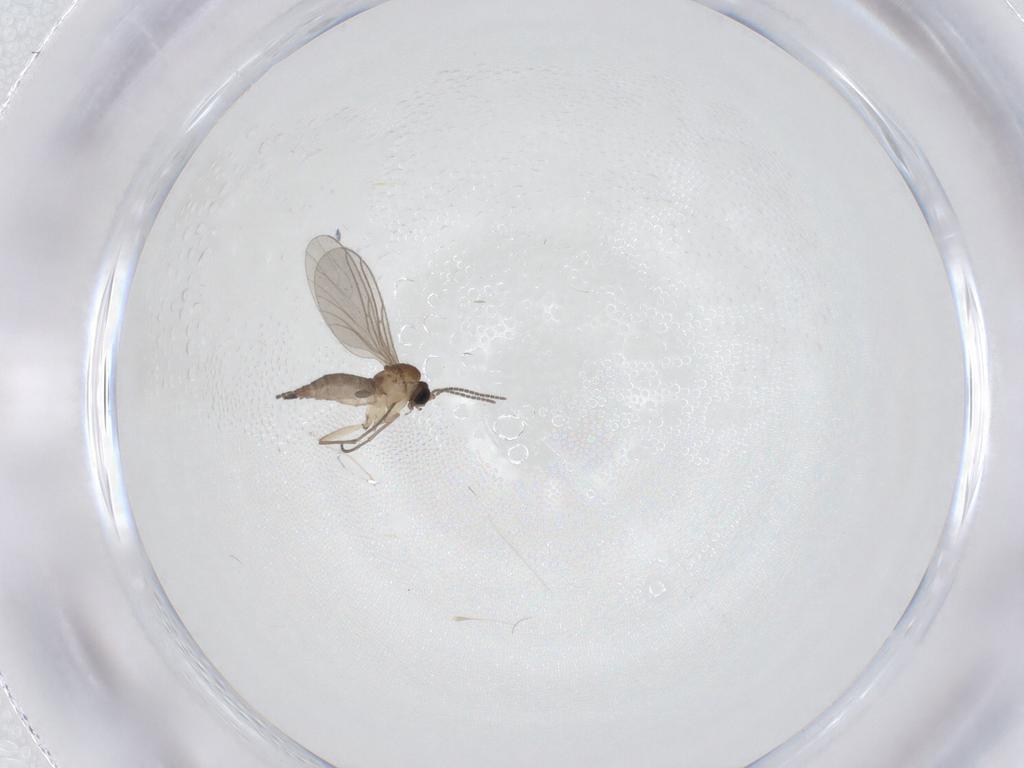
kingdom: Animalia
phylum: Arthropoda
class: Insecta
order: Diptera
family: Sciaridae
